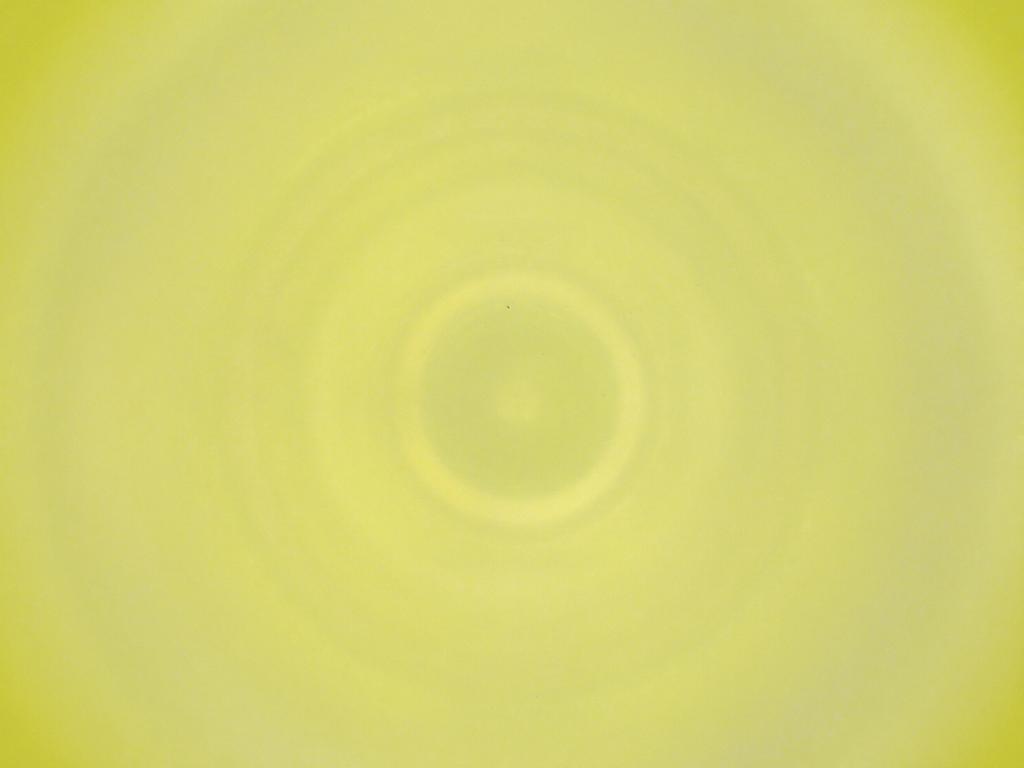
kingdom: Animalia
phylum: Arthropoda
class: Insecta
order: Diptera
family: Cecidomyiidae
